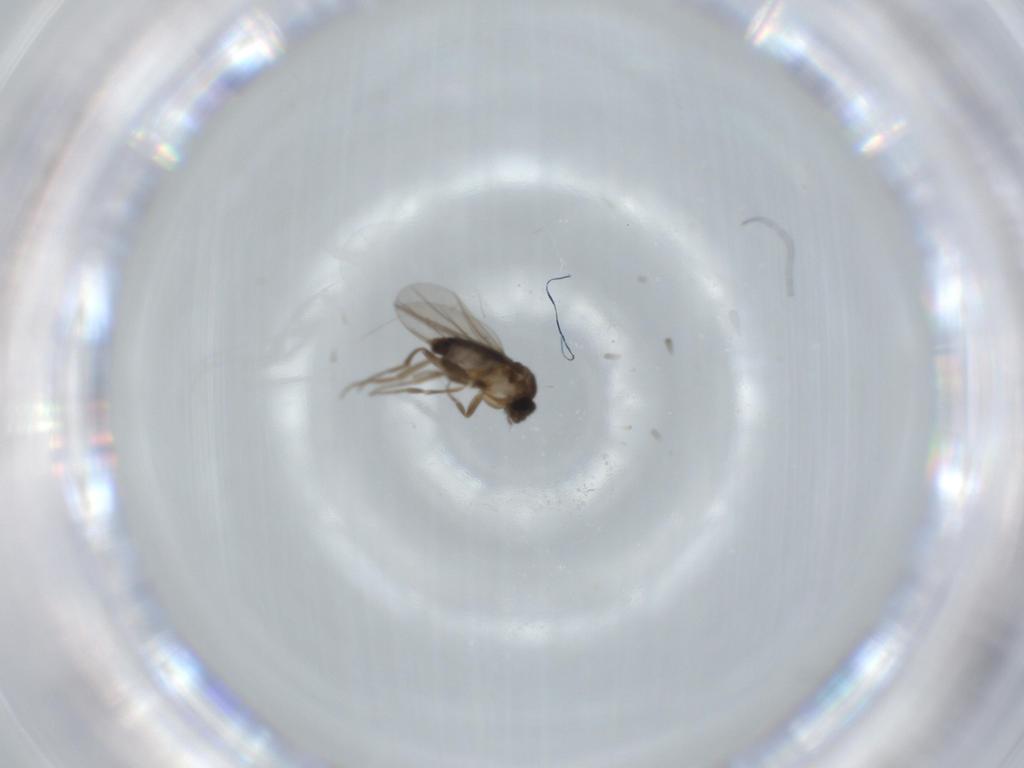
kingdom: Animalia
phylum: Arthropoda
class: Insecta
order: Diptera
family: Phoridae
